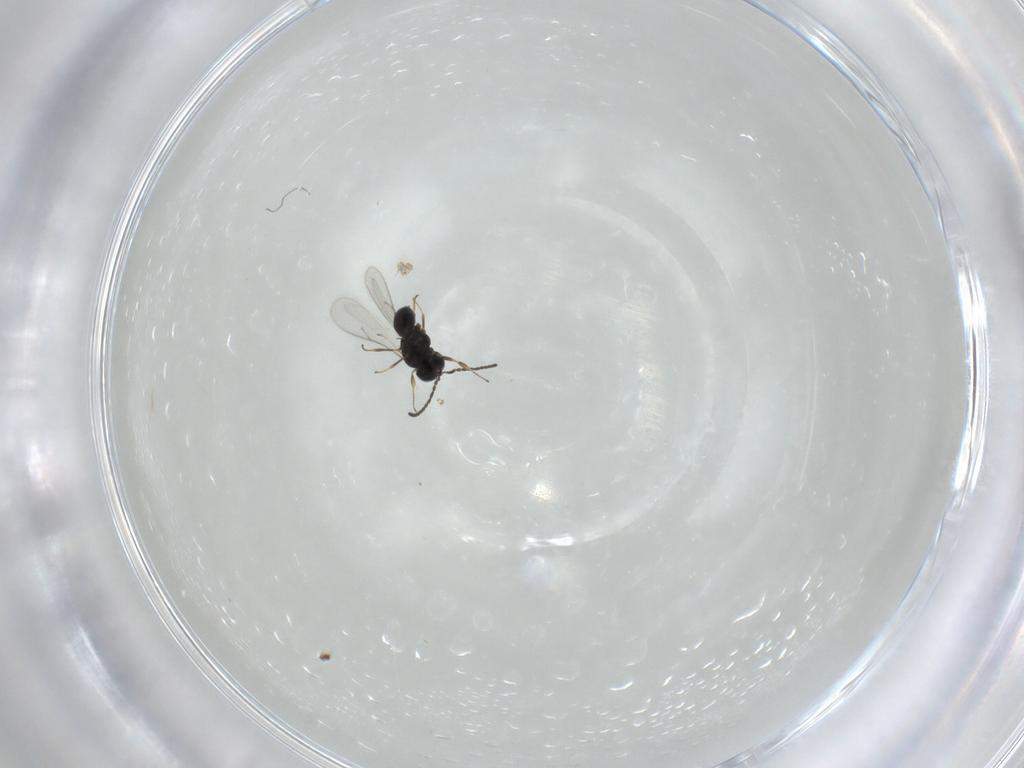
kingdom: Animalia
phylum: Arthropoda
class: Insecta
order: Hymenoptera
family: Scelionidae
